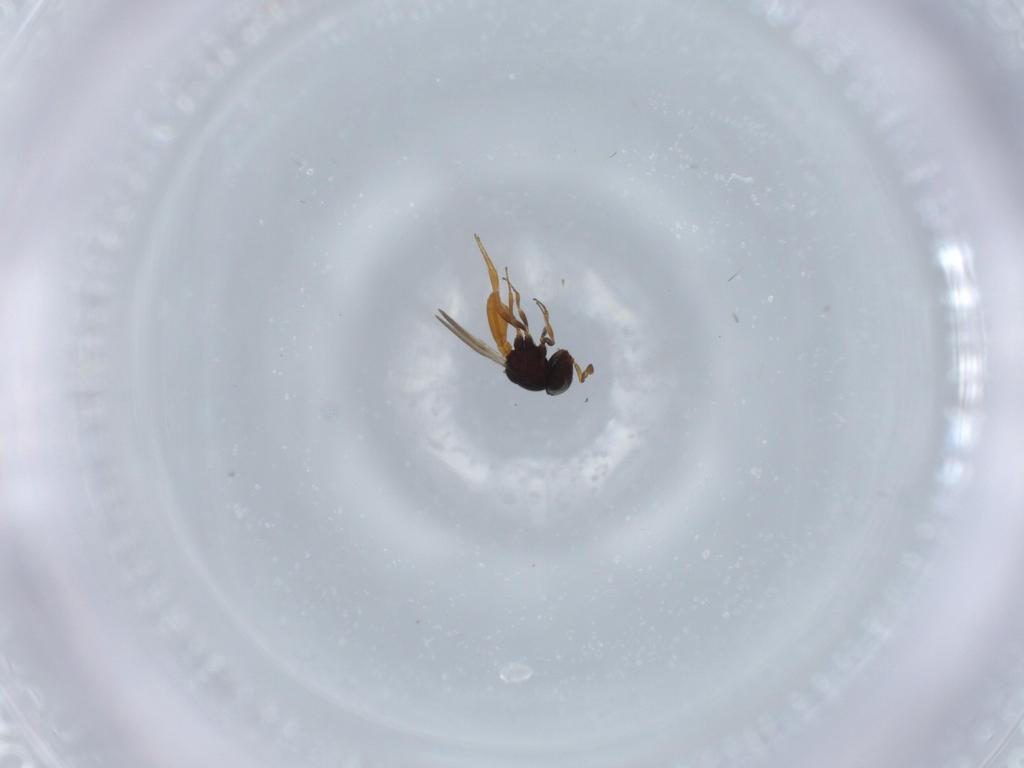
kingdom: Animalia
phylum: Arthropoda
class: Insecta
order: Hymenoptera
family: Scelionidae
